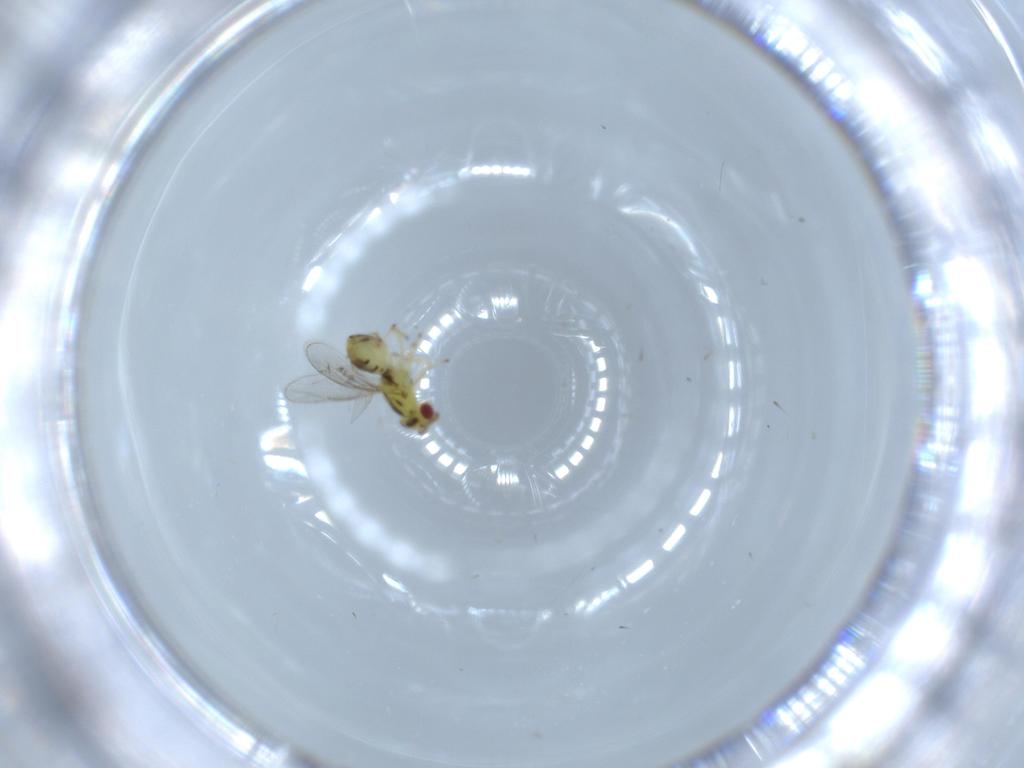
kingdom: Animalia
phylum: Arthropoda
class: Insecta
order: Hymenoptera
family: Eulophidae
